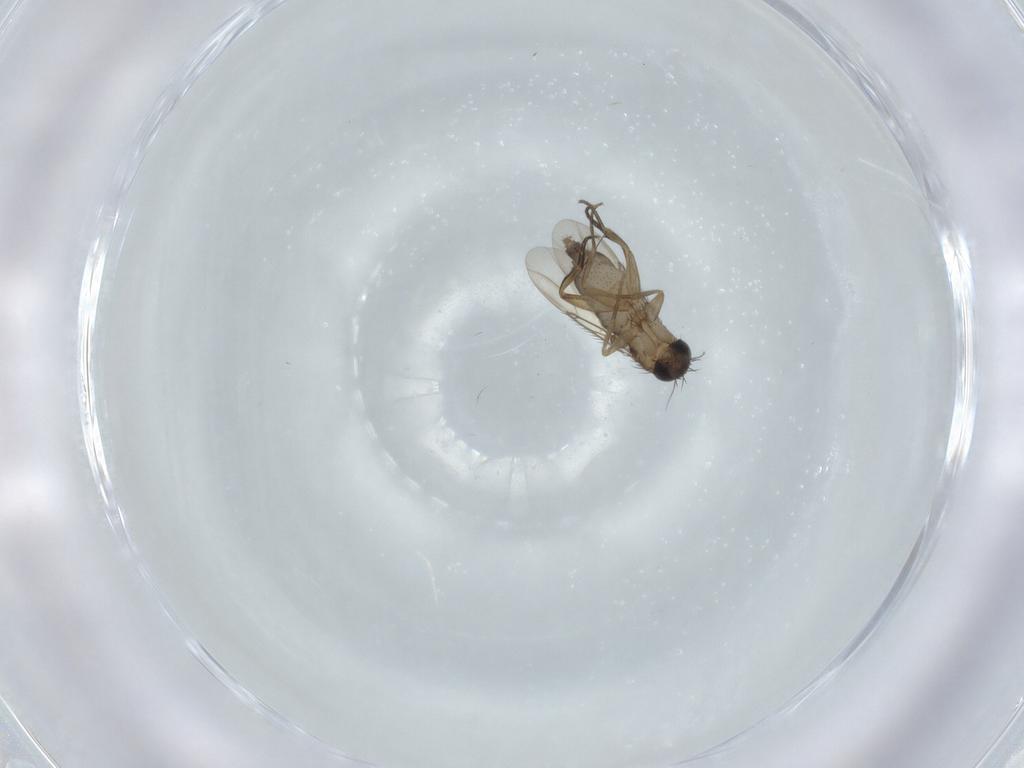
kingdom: Animalia
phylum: Arthropoda
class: Insecta
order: Diptera
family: Phoridae
